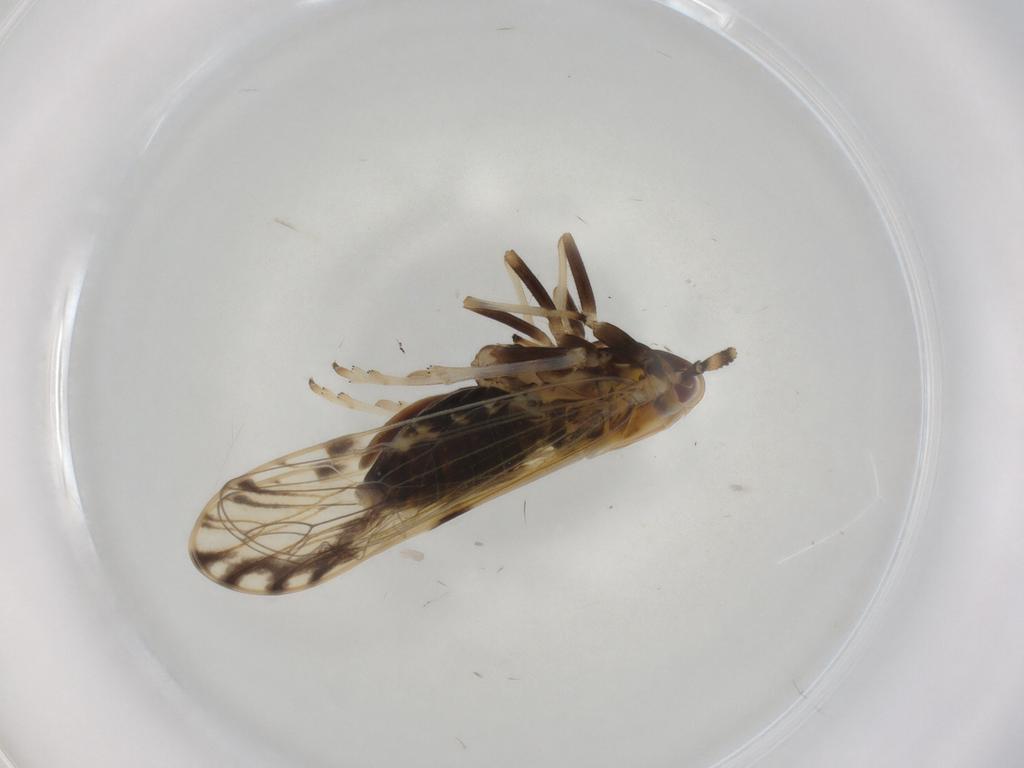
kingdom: Animalia
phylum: Arthropoda
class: Insecta
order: Hemiptera
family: Delphacidae
